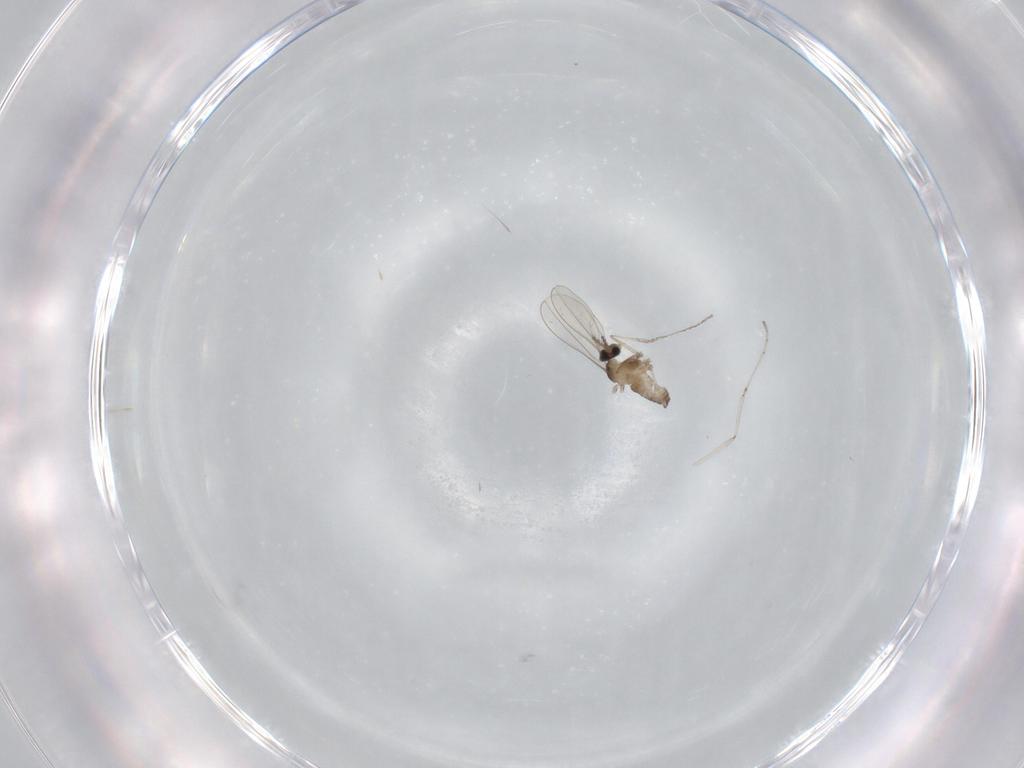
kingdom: Animalia
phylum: Arthropoda
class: Insecta
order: Diptera
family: Cecidomyiidae
